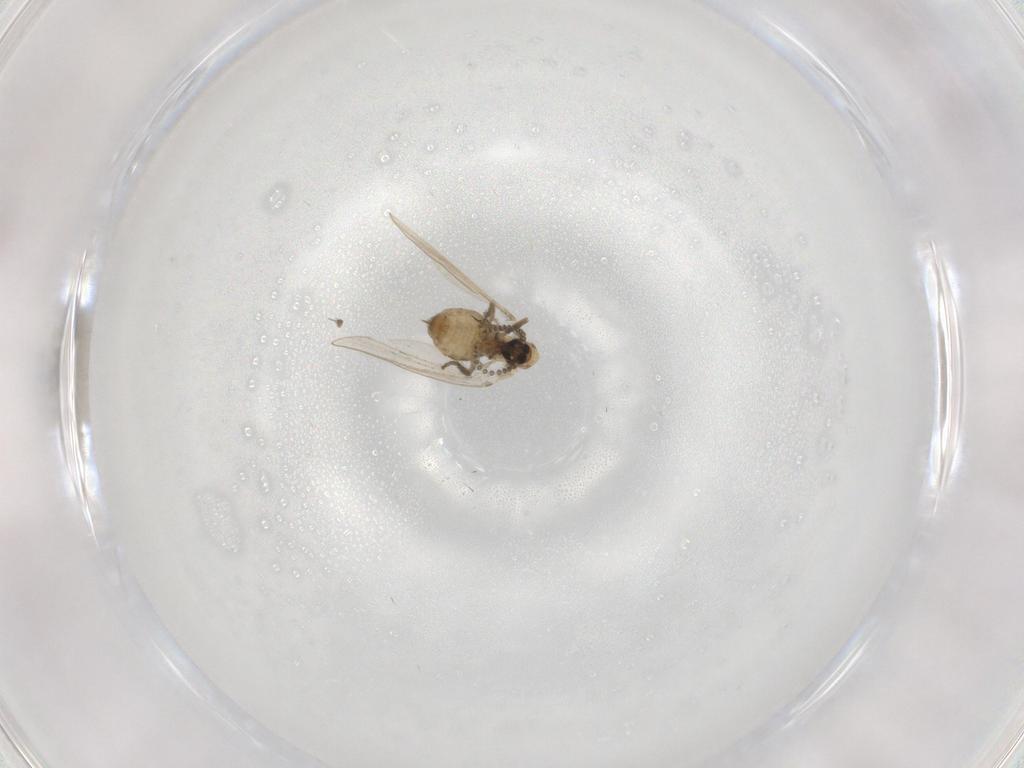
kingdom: Animalia
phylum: Arthropoda
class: Insecta
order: Diptera
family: Psychodidae
